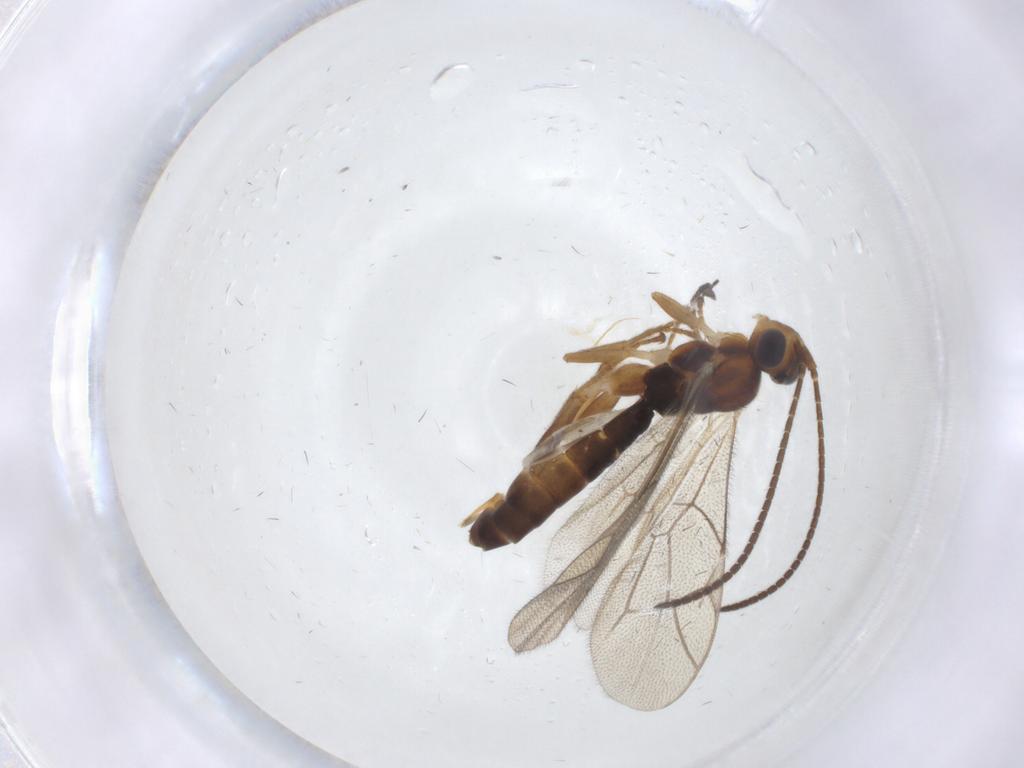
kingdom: Animalia
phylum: Arthropoda
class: Insecta
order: Hymenoptera
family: Ichneumonidae
